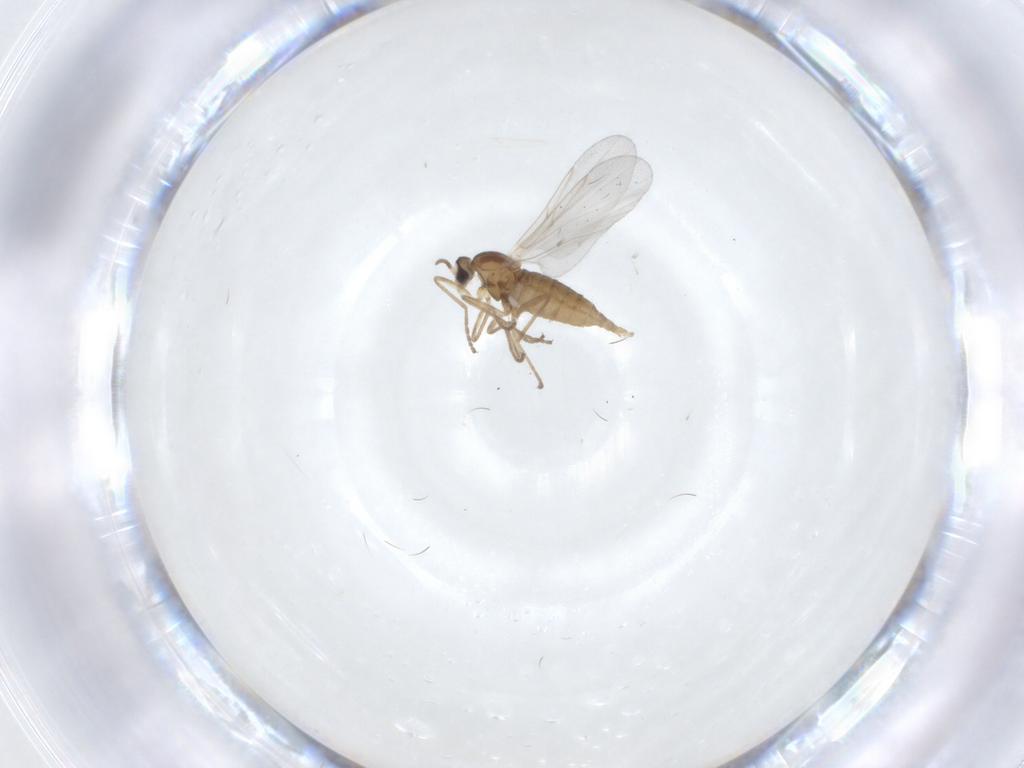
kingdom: Animalia
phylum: Arthropoda
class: Insecta
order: Diptera
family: Cecidomyiidae
